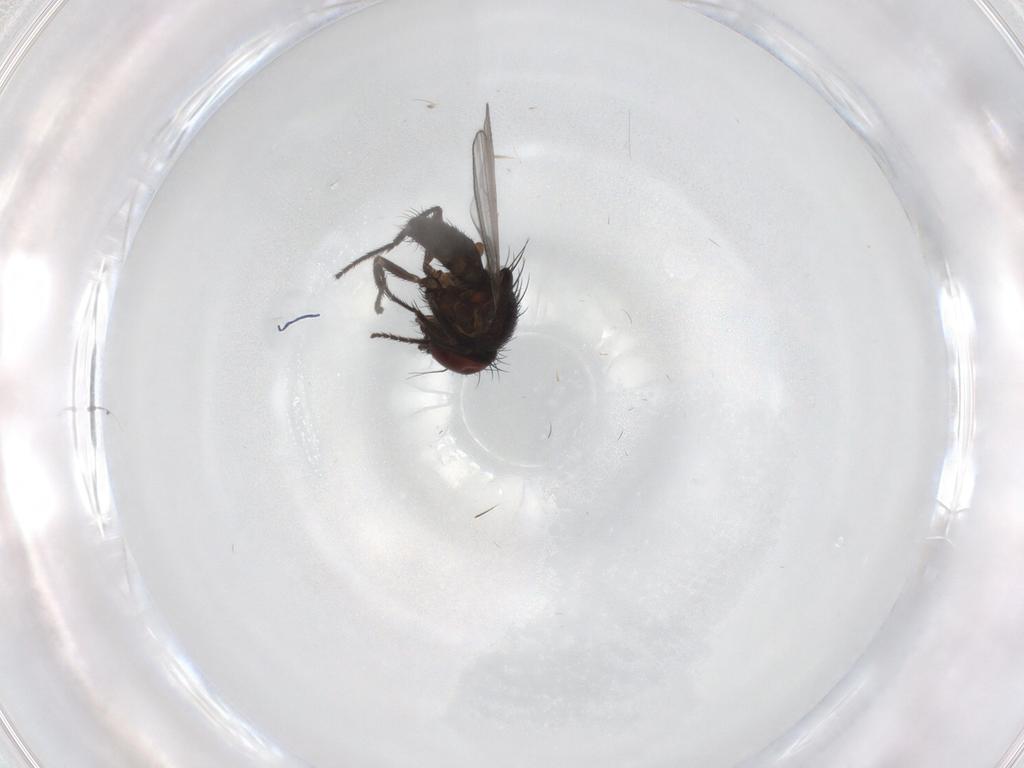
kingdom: Animalia
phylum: Arthropoda
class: Insecta
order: Diptera
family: Milichiidae
